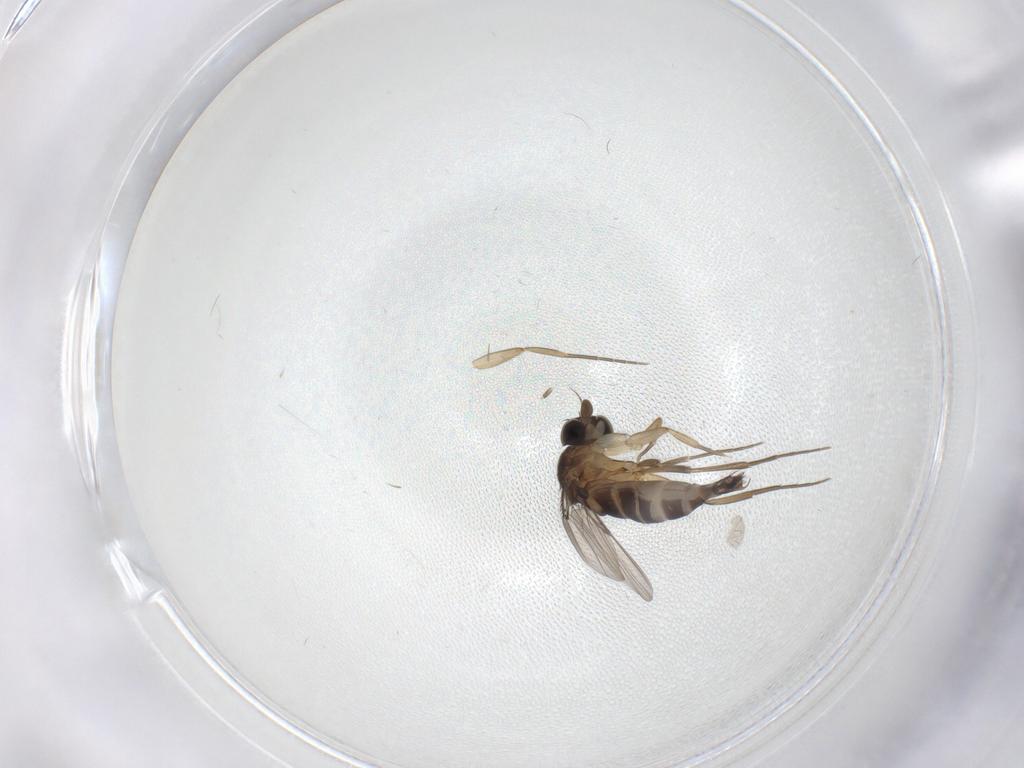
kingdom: Animalia
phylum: Arthropoda
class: Insecta
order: Diptera
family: Phoridae
